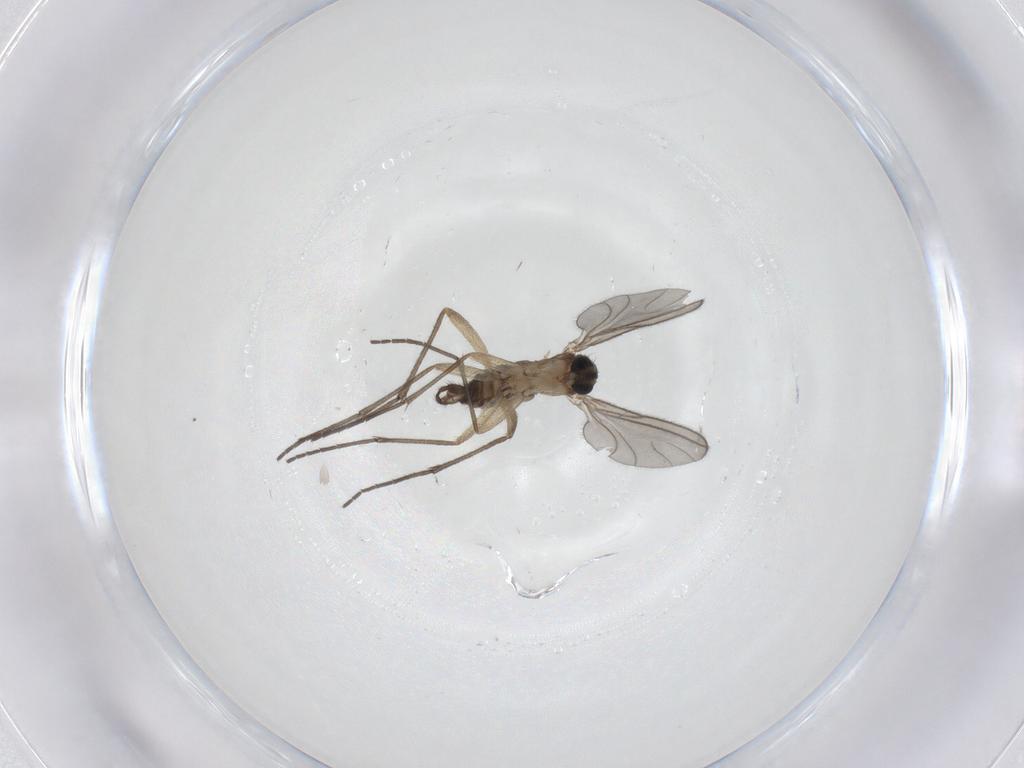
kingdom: Animalia
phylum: Arthropoda
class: Insecta
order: Diptera
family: Sciaridae
